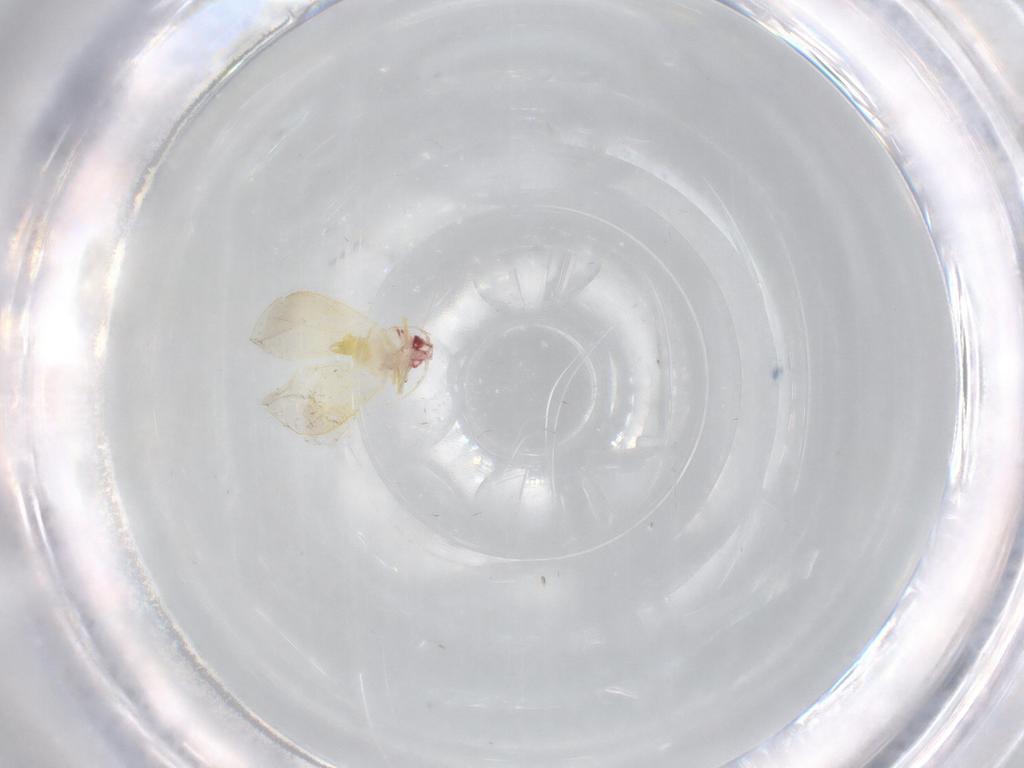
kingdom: Animalia
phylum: Arthropoda
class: Insecta
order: Hemiptera
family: Aleyrodidae
